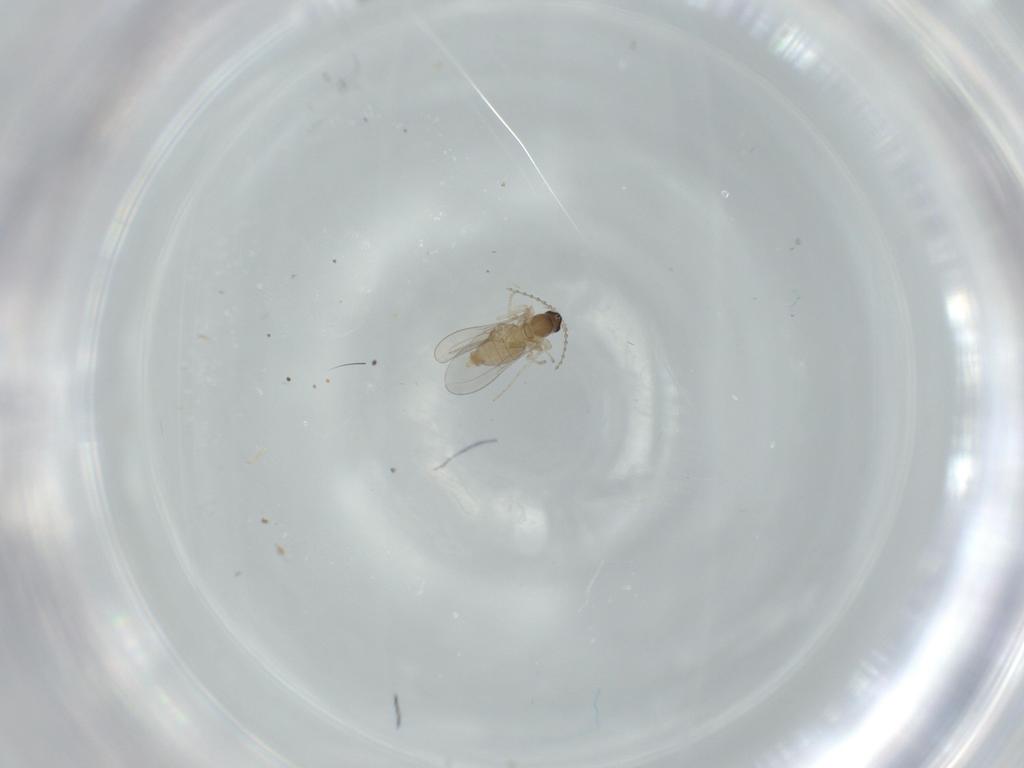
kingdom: Animalia
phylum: Arthropoda
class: Insecta
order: Diptera
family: Cecidomyiidae
